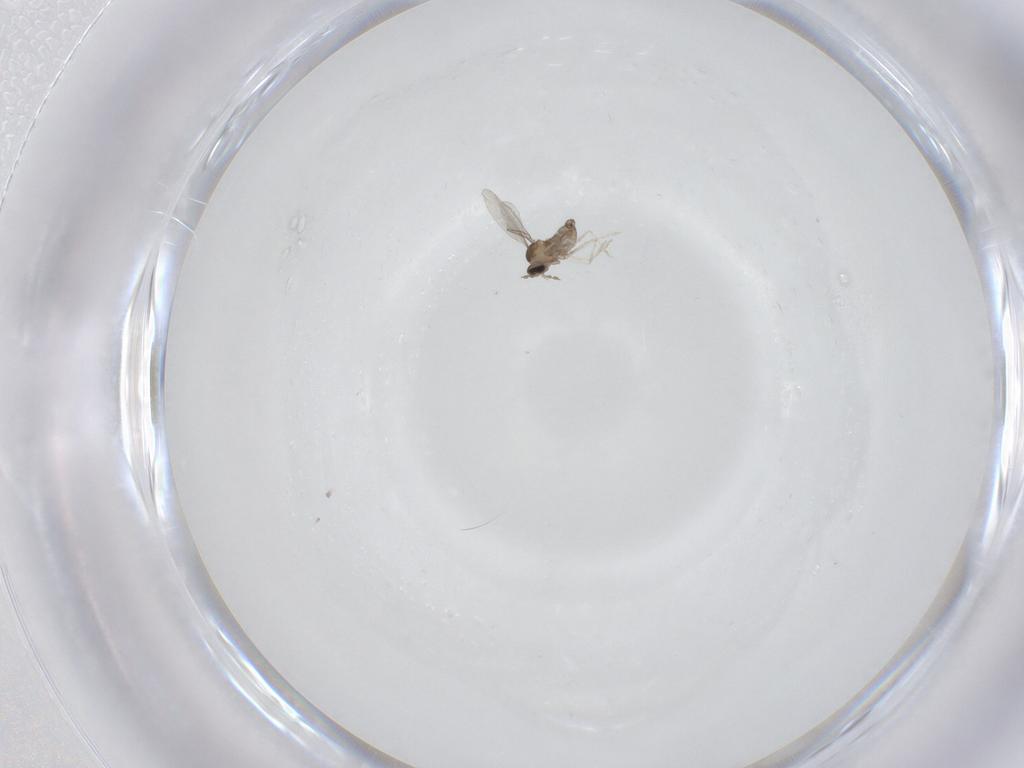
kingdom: Animalia
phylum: Arthropoda
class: Insecta
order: Diptera
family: Cecidomyiidae
